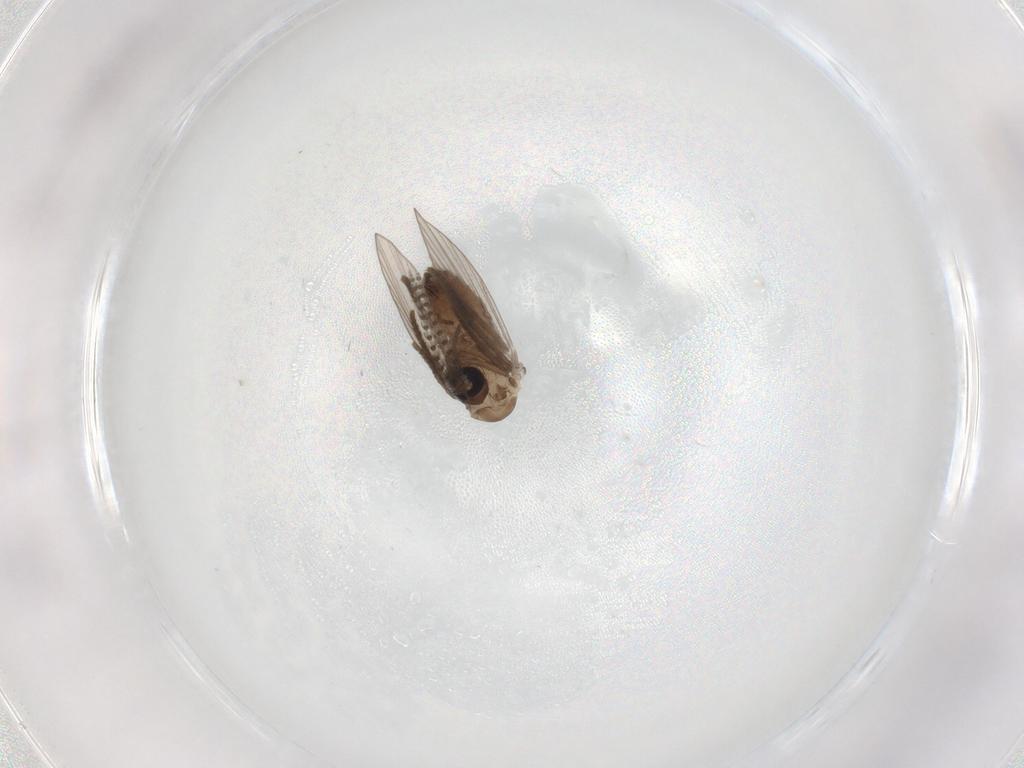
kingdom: Animalia
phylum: Arthropoda
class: Insecta
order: Diptera
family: Psychodidae
